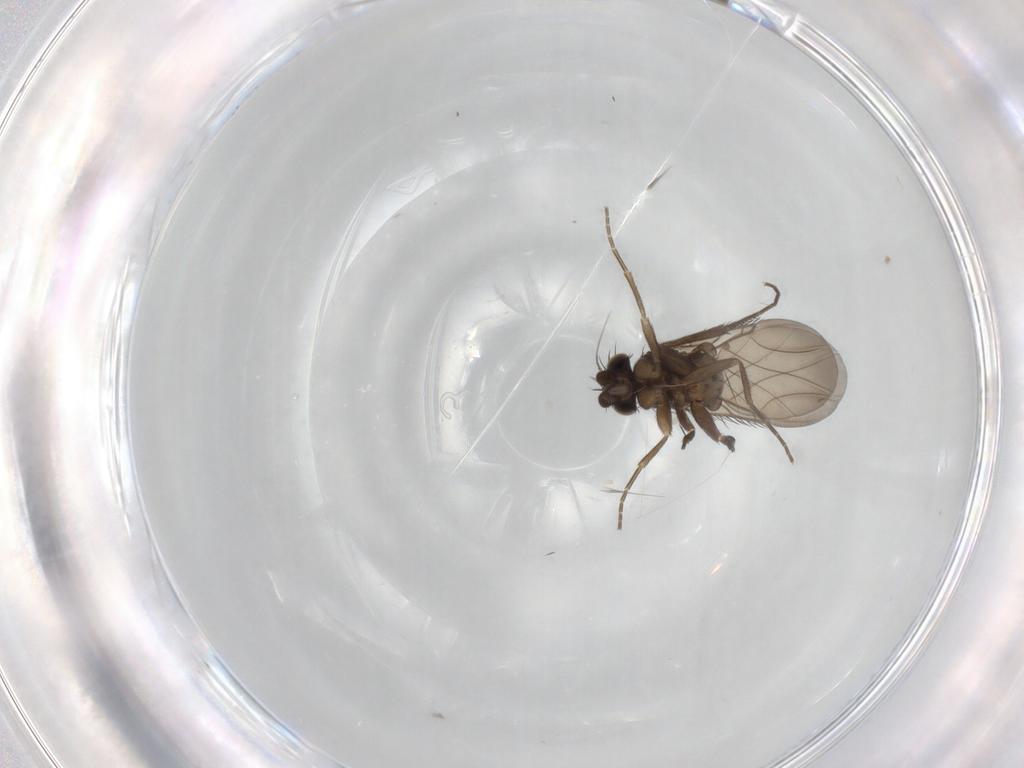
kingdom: Animalia
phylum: Arthropoda
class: Insecta
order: Diptera
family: Phoridae
